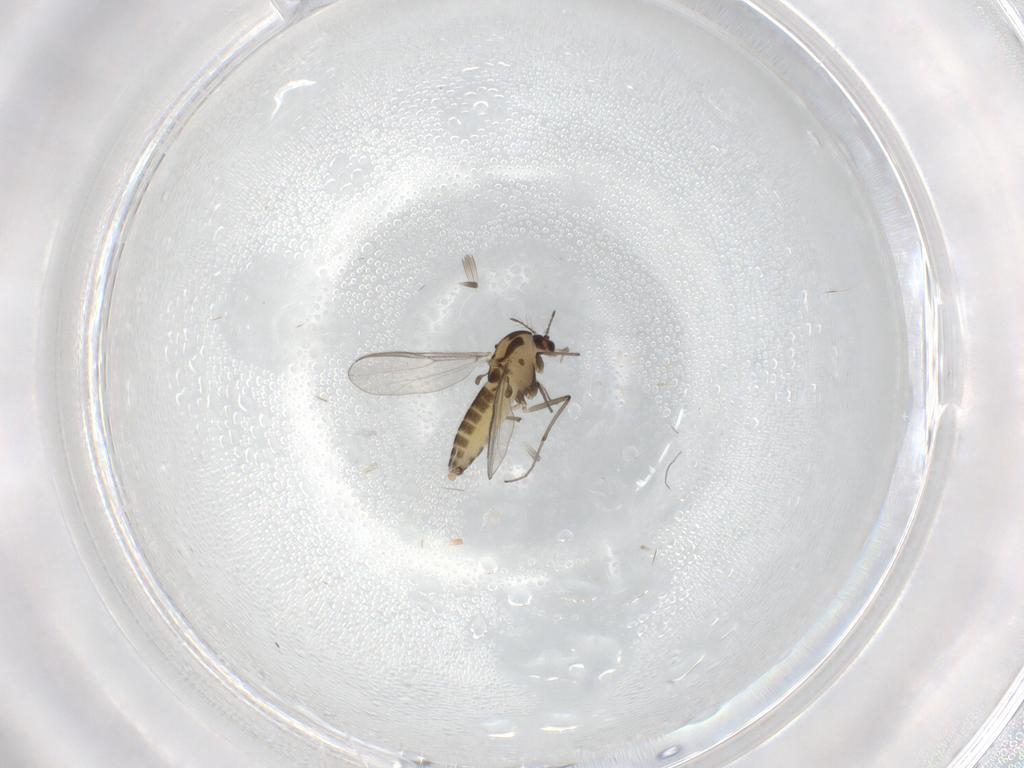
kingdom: Animalia
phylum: Arthropoda
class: Insecta
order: Diptera
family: Chironomidae
